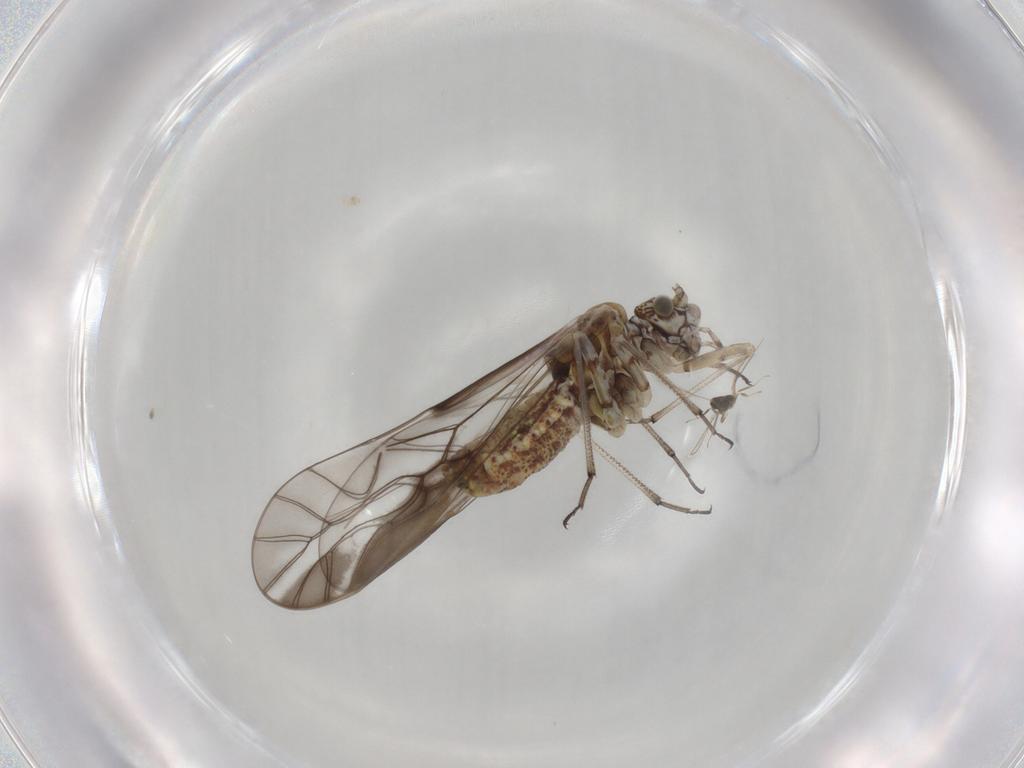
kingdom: Animalia
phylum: Arthropoda
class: Insecta
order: Psocodea
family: Psocidae
